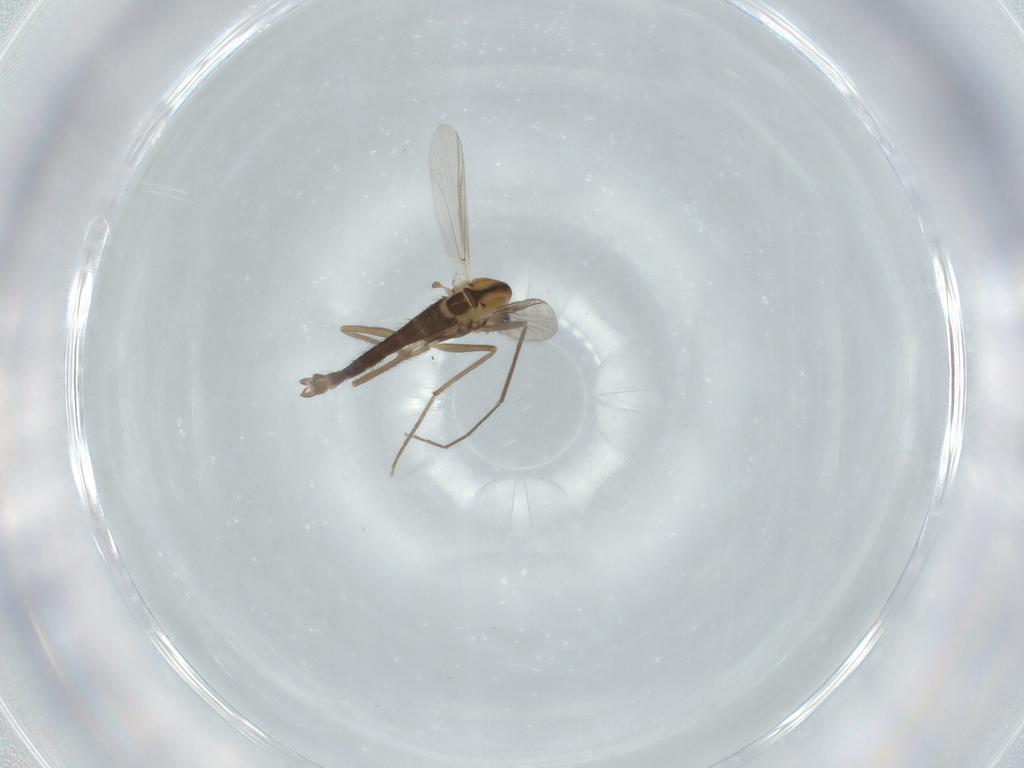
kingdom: Animalia
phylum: Arthropoda
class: Insecta
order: Diptera
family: Chironomidae
